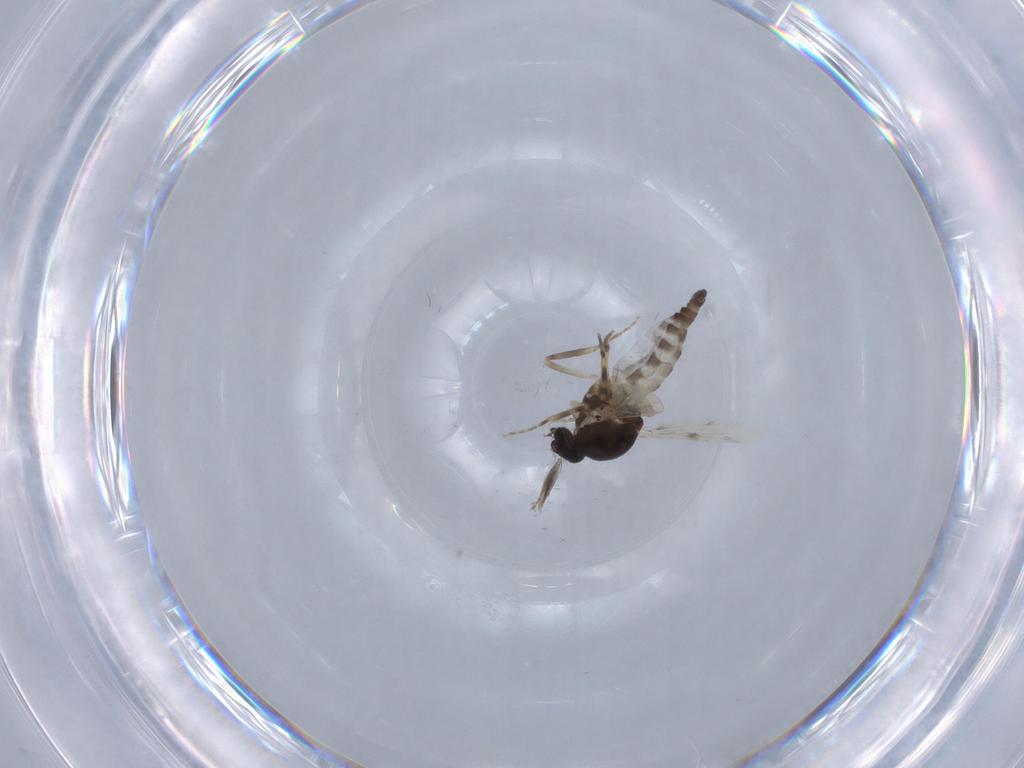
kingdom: Animalia
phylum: Arthropoda
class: Insecta
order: Diptera
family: Ceratopogonidae
